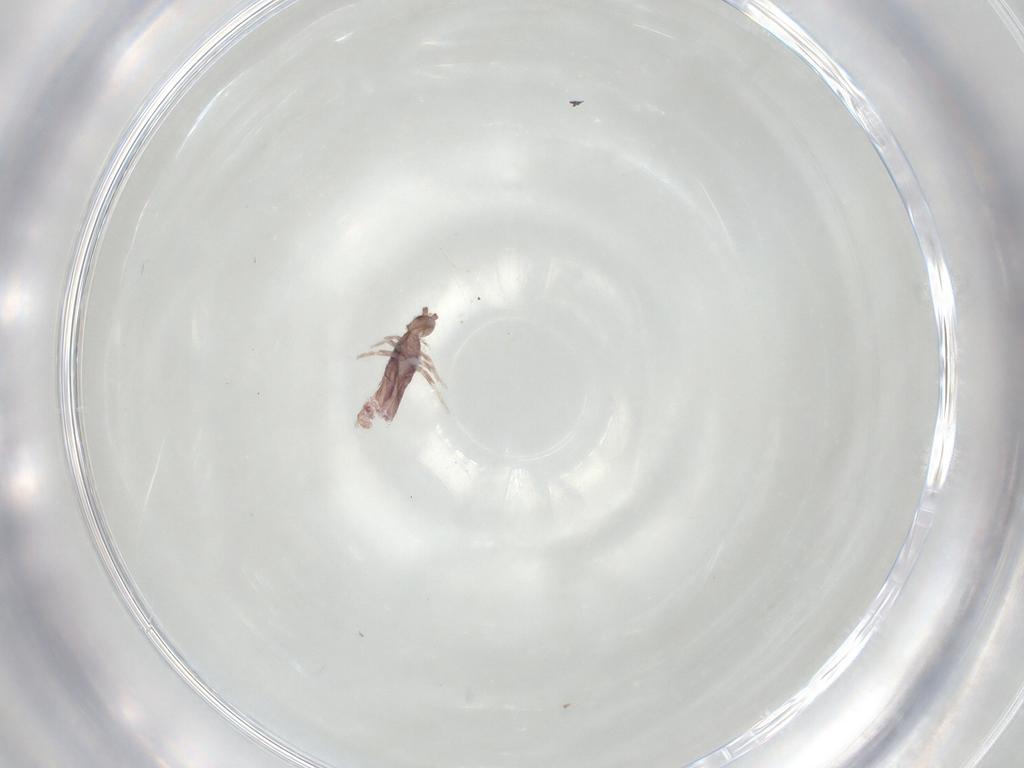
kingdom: Animalia
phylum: Arthropoda
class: Collembola
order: Entomobryomorpha
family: Entomobryidae
